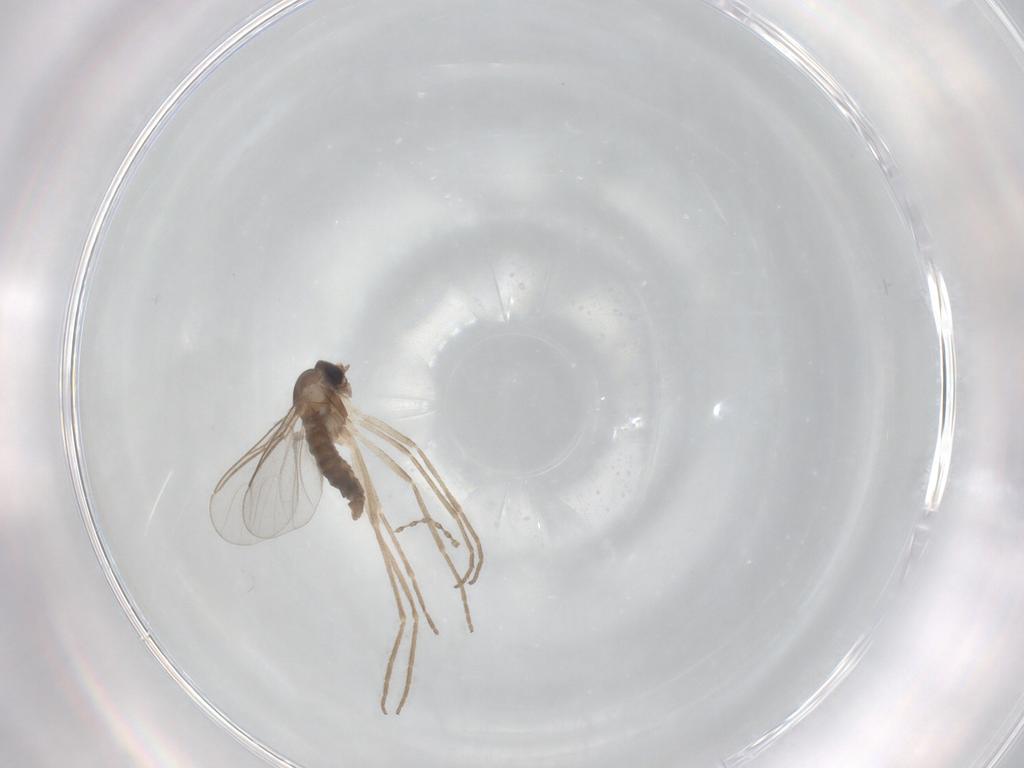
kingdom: Animalia
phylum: Arthropoda
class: Insecta
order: Diptera
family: Cecidomyiidae
